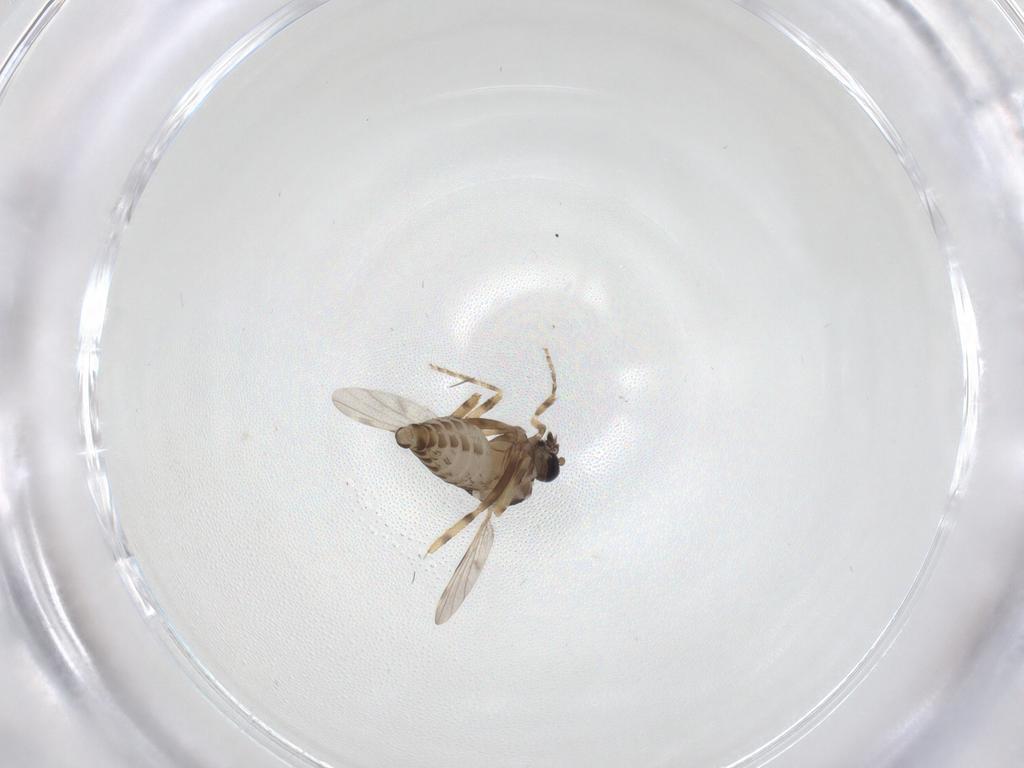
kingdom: Animalia
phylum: Arthropoda
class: Insecta
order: Diptera
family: Ceratopogonidae
